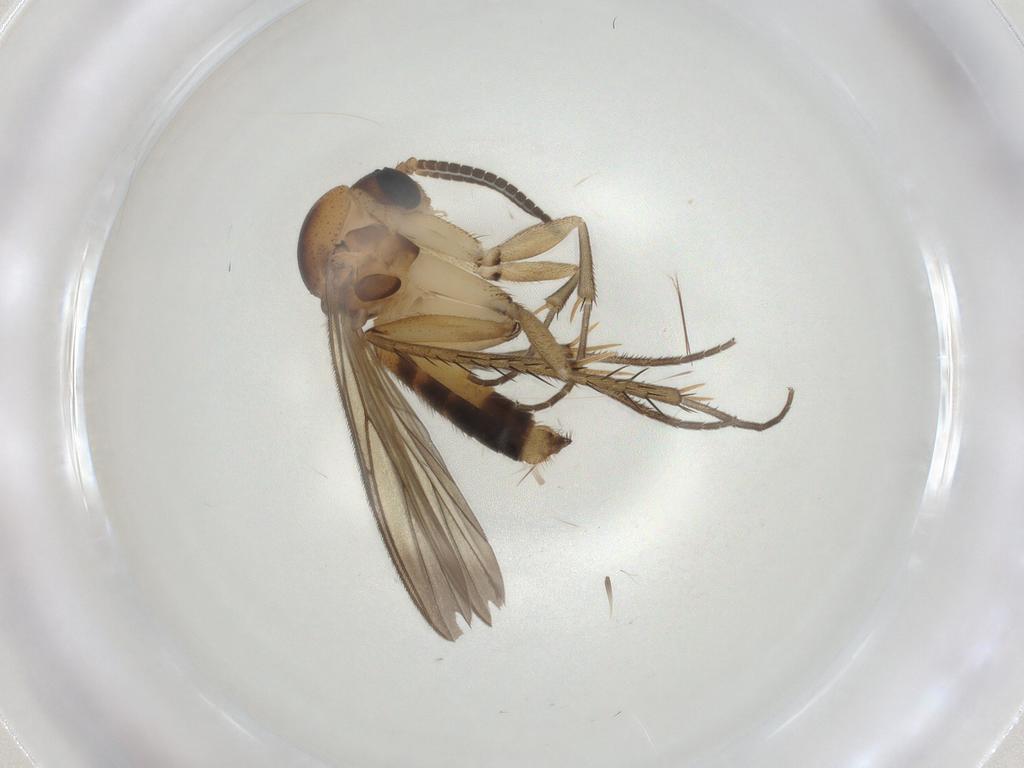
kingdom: Animalia
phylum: Arthropoda
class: Insecta
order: Diptera
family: Mycetophilidae
